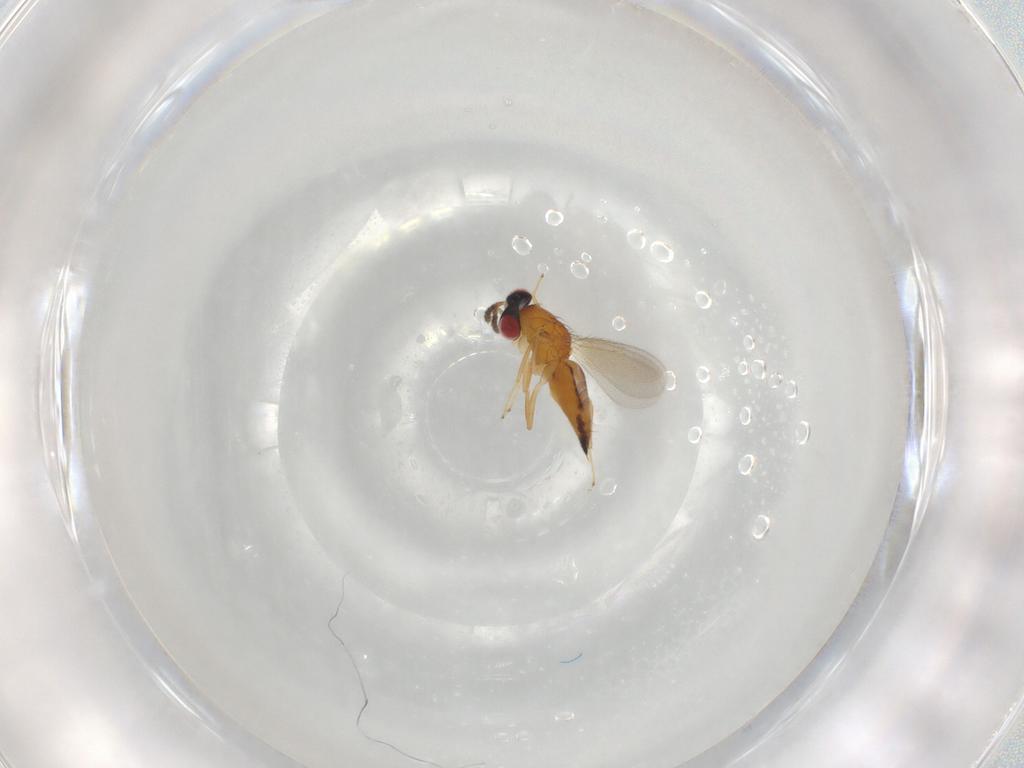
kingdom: Animalia
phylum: Arthropoda
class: Insecta
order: Hymenoptera
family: Eulophidae
